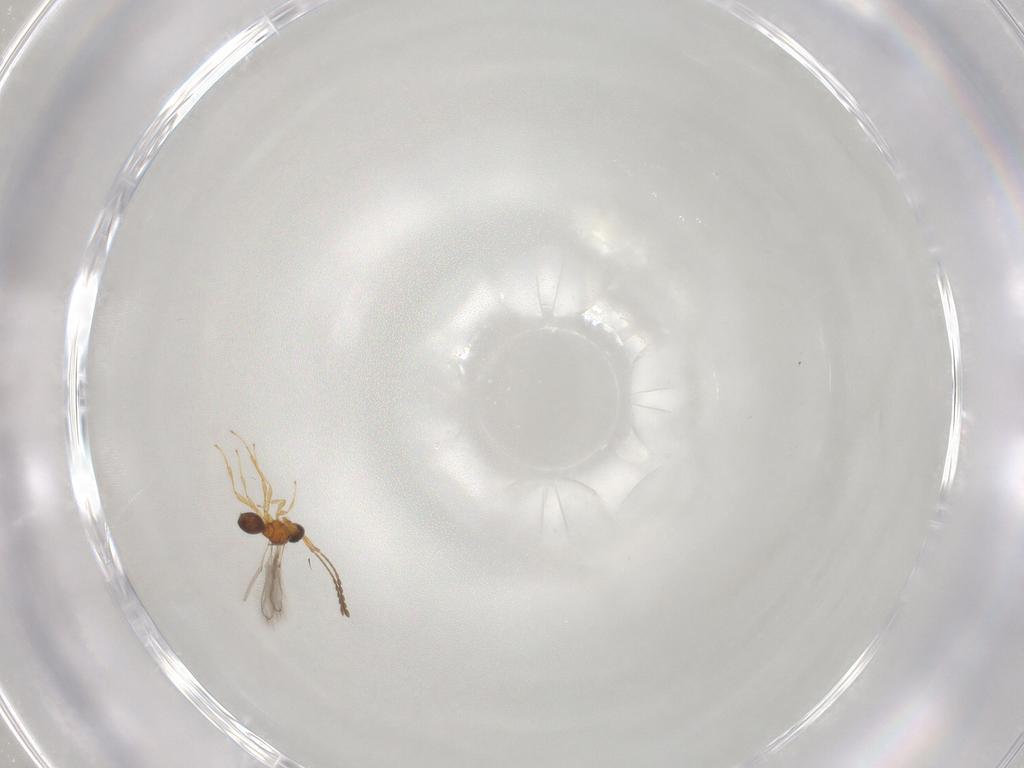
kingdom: Animalia
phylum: Arthropoda
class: Insecta
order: Hymenoptera
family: Diapriidae
